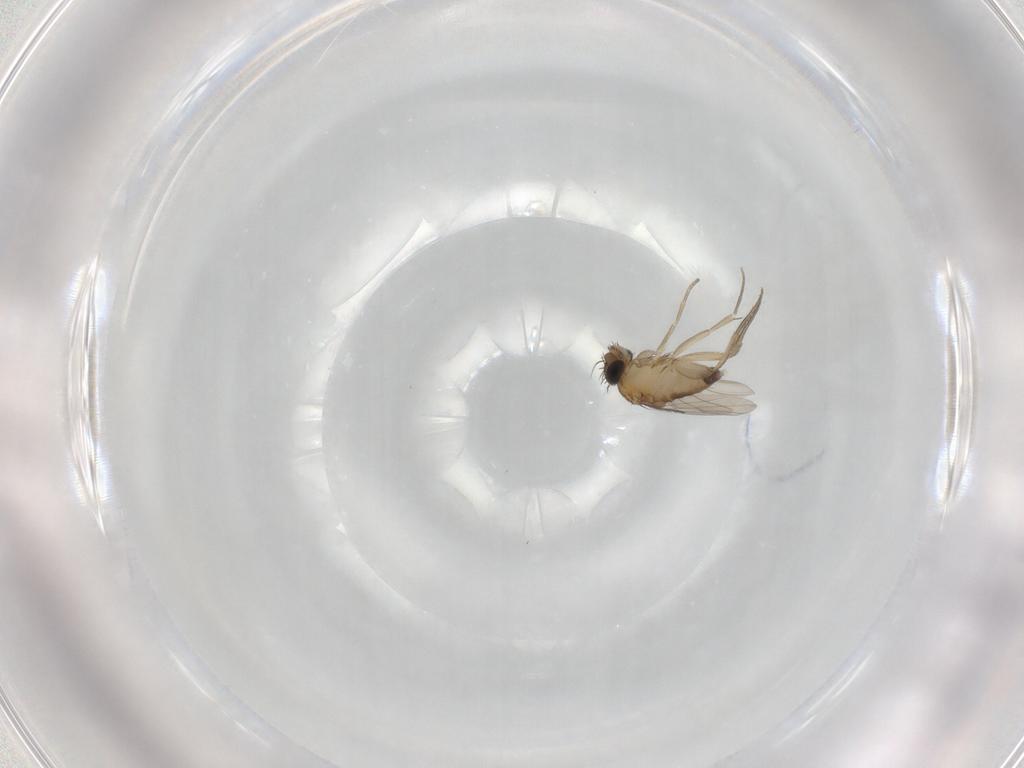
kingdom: Animalia
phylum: Arthropoda
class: Insecta
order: Diptera
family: Phoridae
